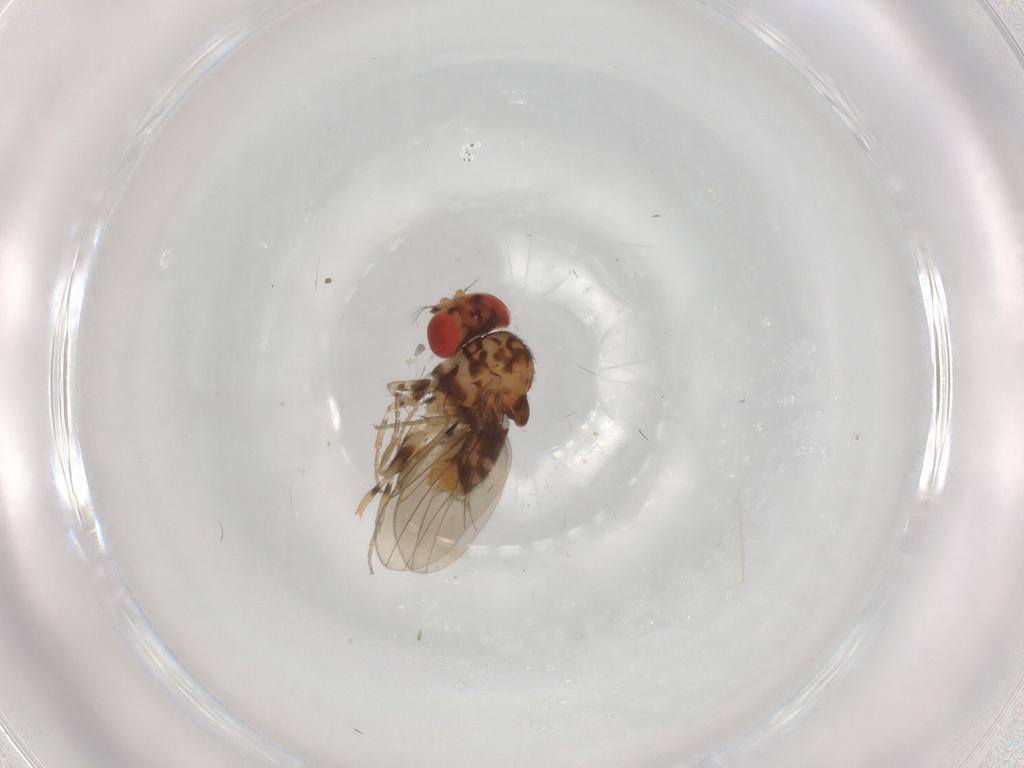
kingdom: Animalia
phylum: Arthropoda
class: Insecta
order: Diptera
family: Drosophilidae
